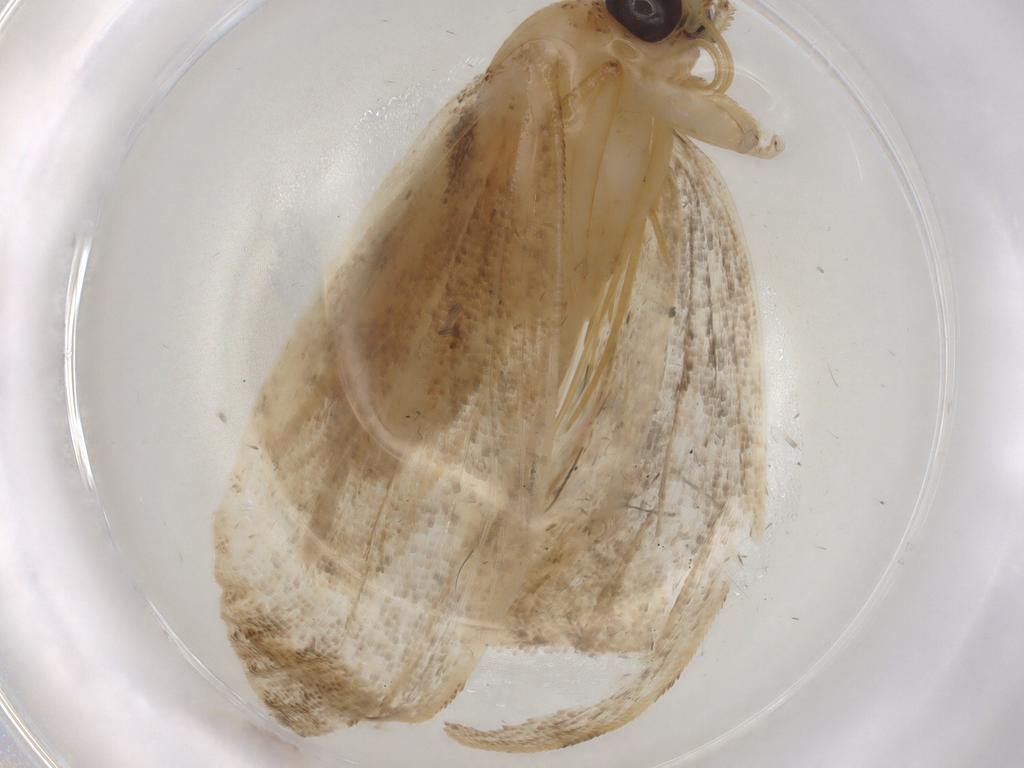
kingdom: Animalia
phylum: Arthropoda
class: Insecta
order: Lepidoptera
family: Erebidae
